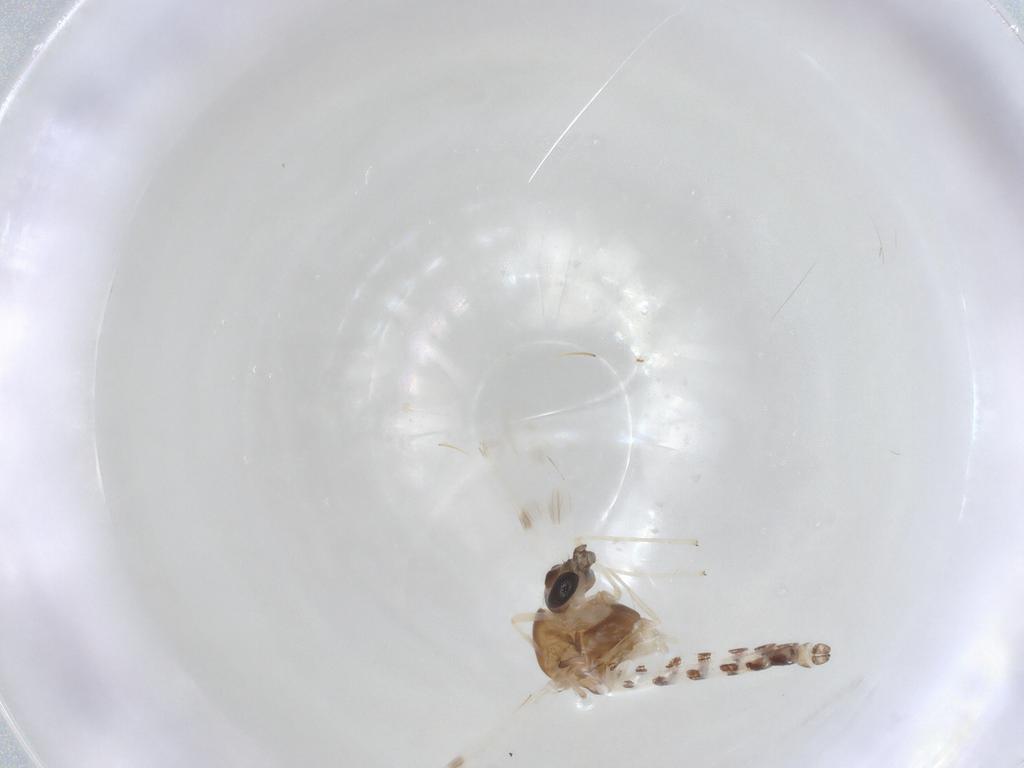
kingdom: Animalia
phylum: Arthropoda
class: Insecta
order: Diptera
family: Chironomidae
